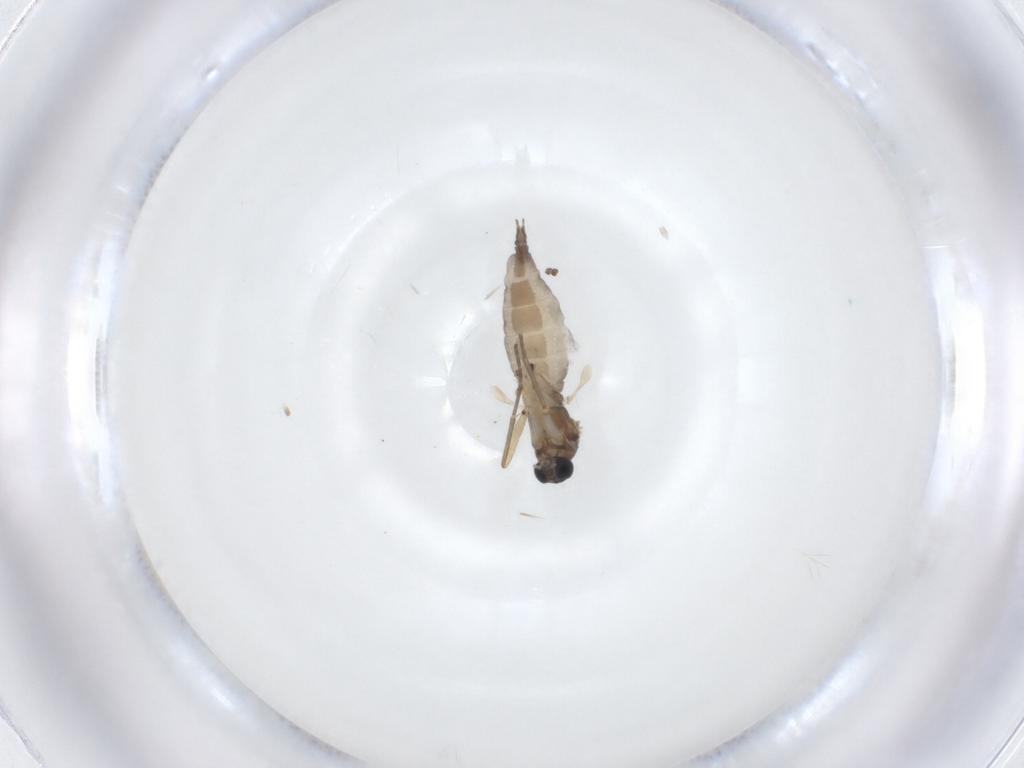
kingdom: Animalia
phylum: Arthropoda
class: Insecta
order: Diptera
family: Sciaridae
